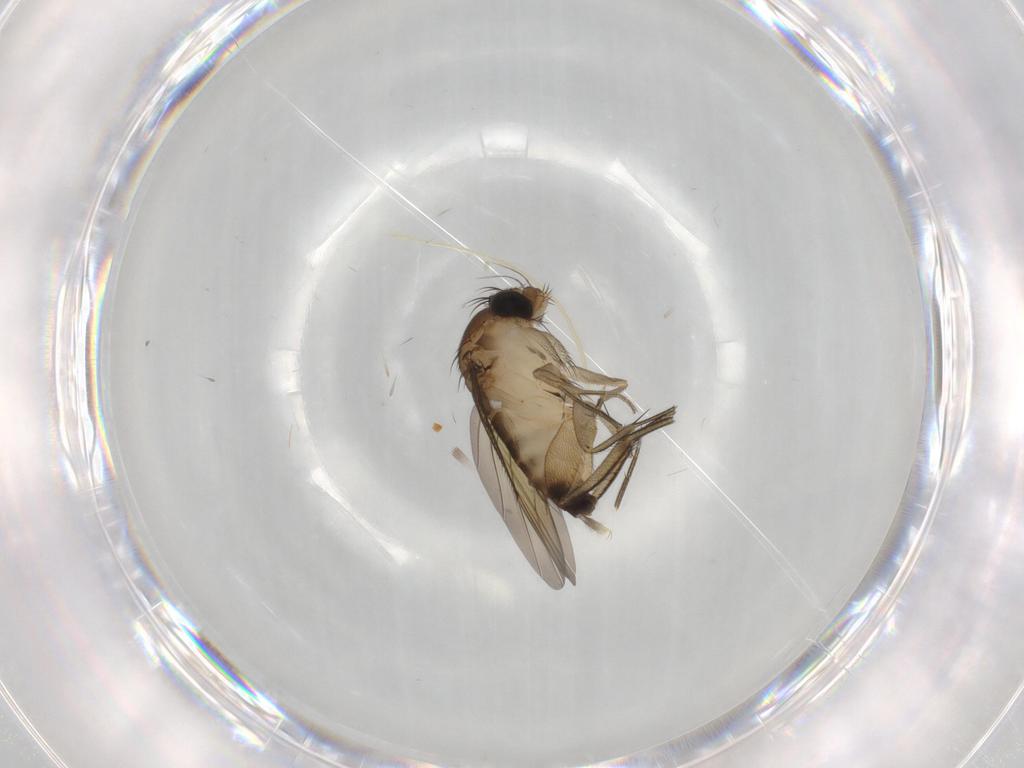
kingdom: Animalia
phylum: Arthropoda
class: Insecta
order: Diptera
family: Phoridae
